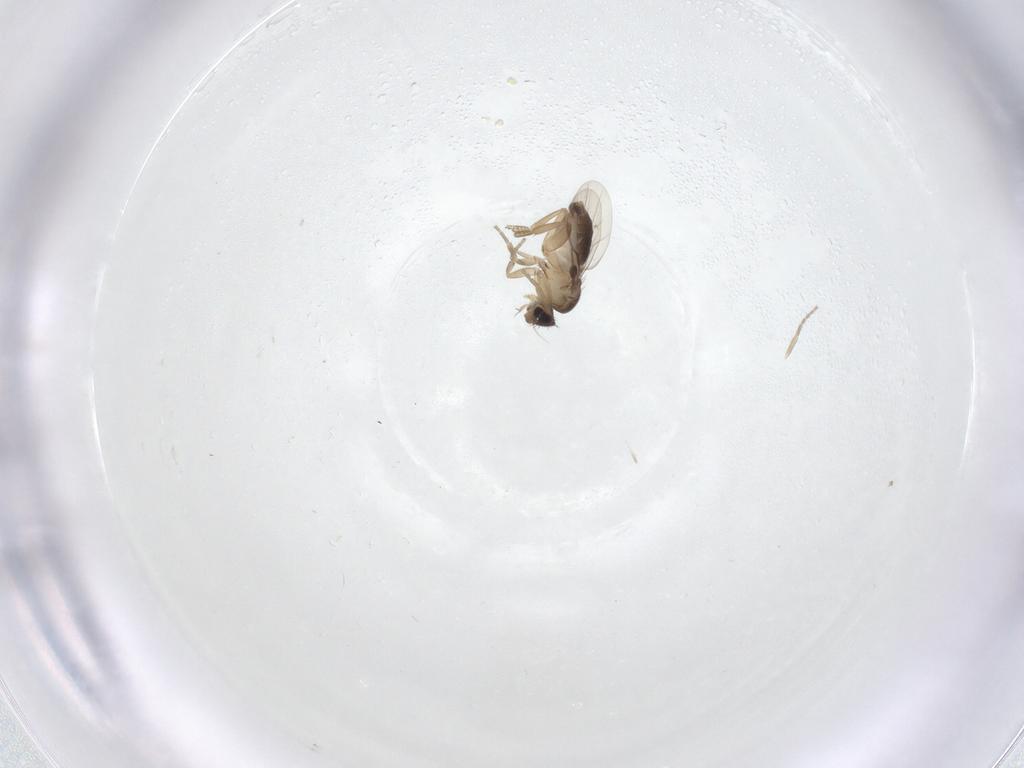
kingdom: Animalia
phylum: Arthropoda
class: Insecta
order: Diptera
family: Phoridae
